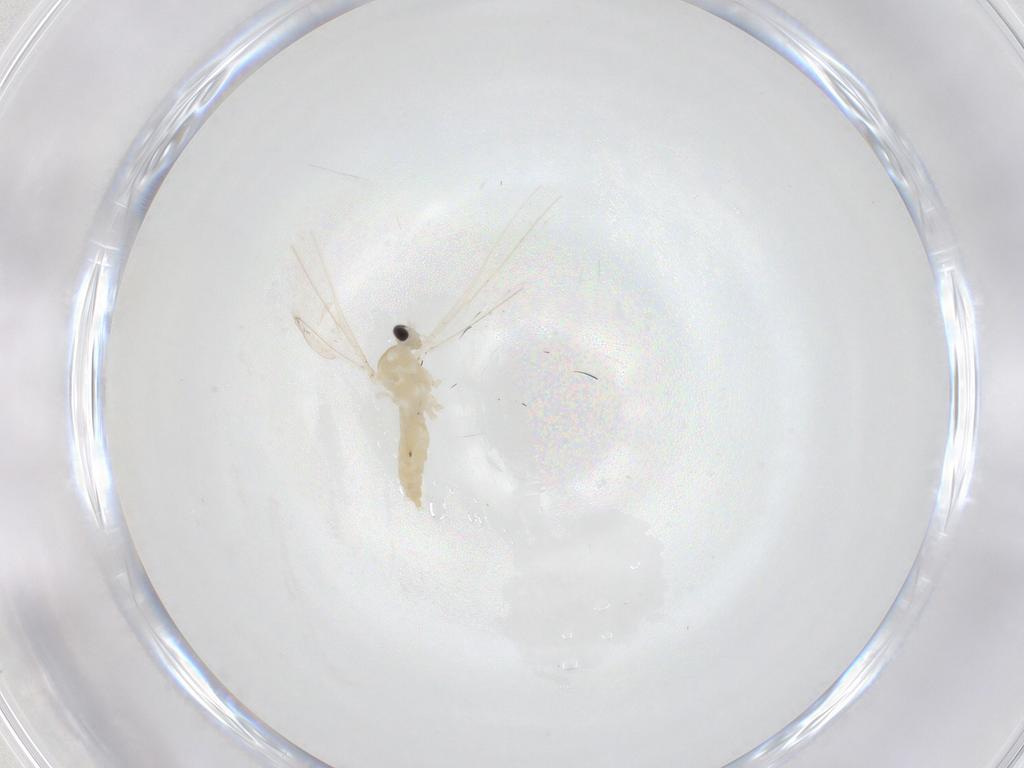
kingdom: Animalia
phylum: Arthropoda
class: Insecta
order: Diptera
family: Cecidomyiidae
